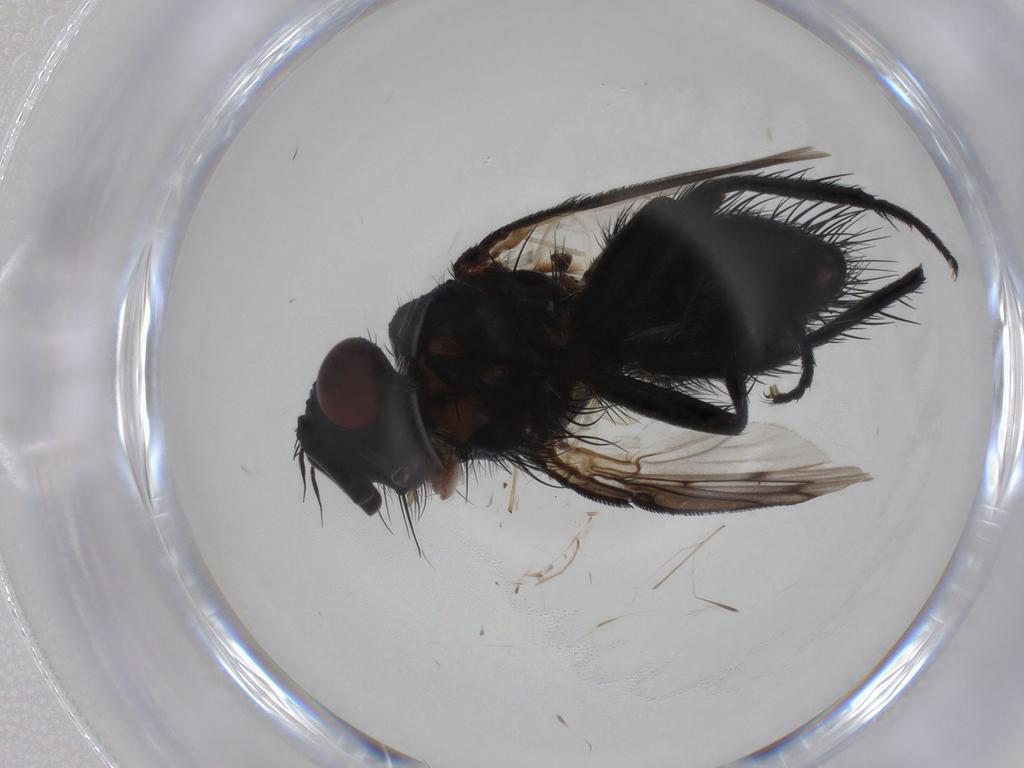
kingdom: Animalia
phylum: Arthropoda
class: Insecta
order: Diptera
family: Tachinidae
